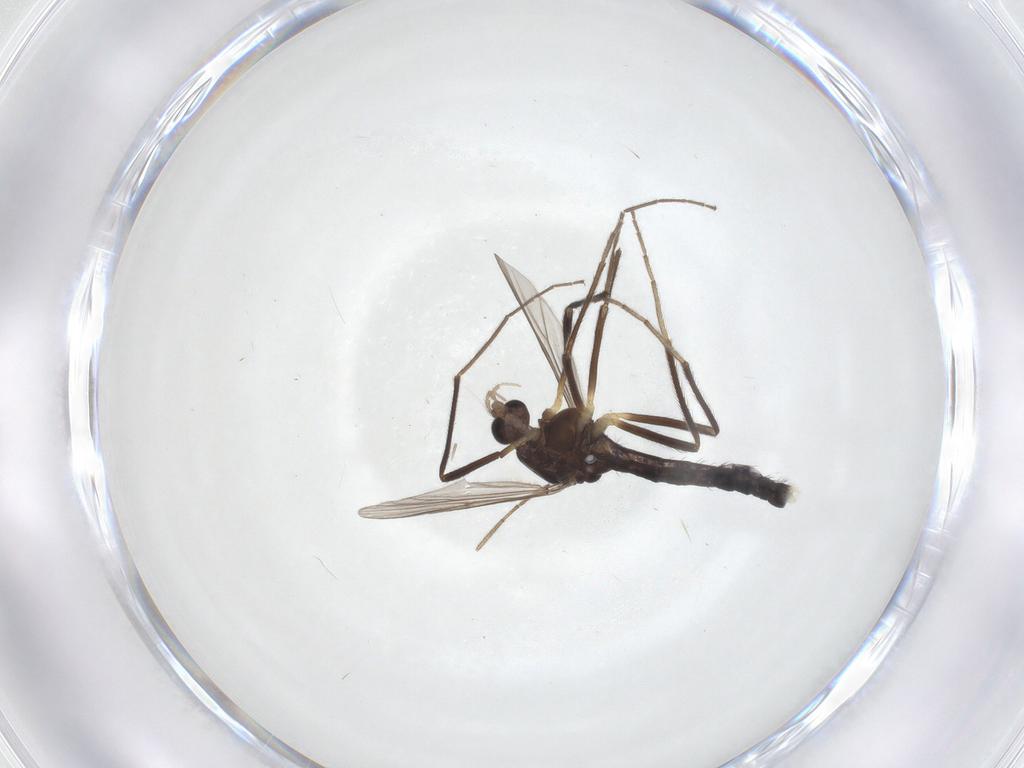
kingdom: Animalia
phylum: Arthropoda
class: Insecta
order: Diptera
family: Chironomidae
